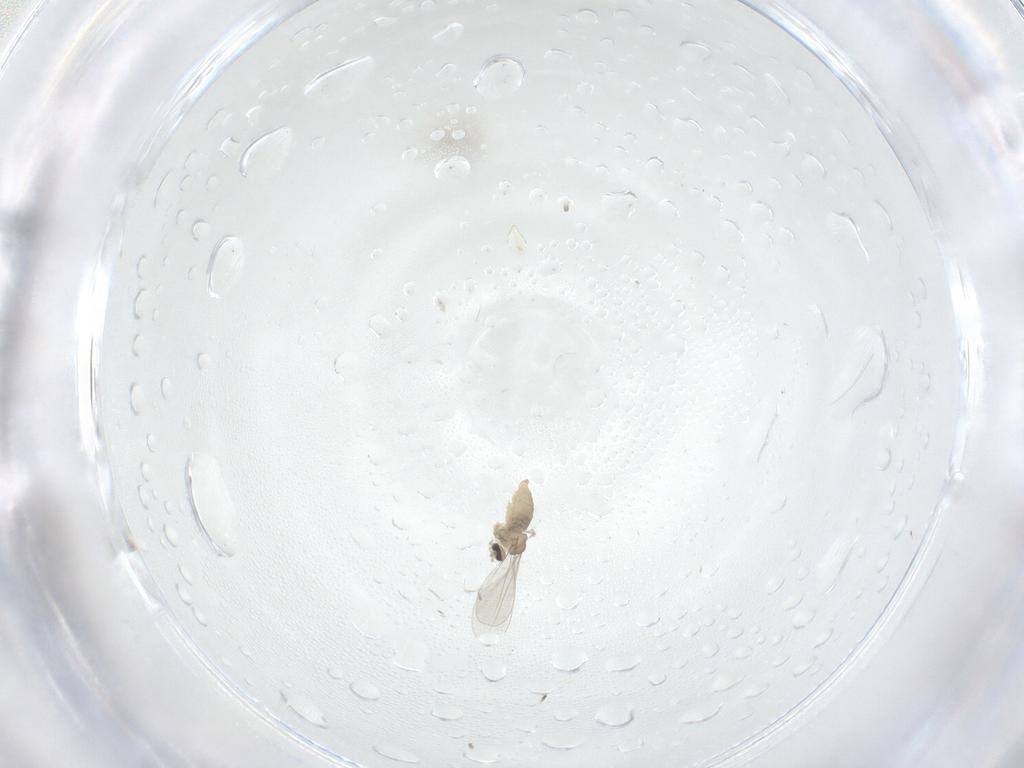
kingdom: Animalia
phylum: Arthropoda
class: Insecta
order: Diptera
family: Cecidomyiidae
